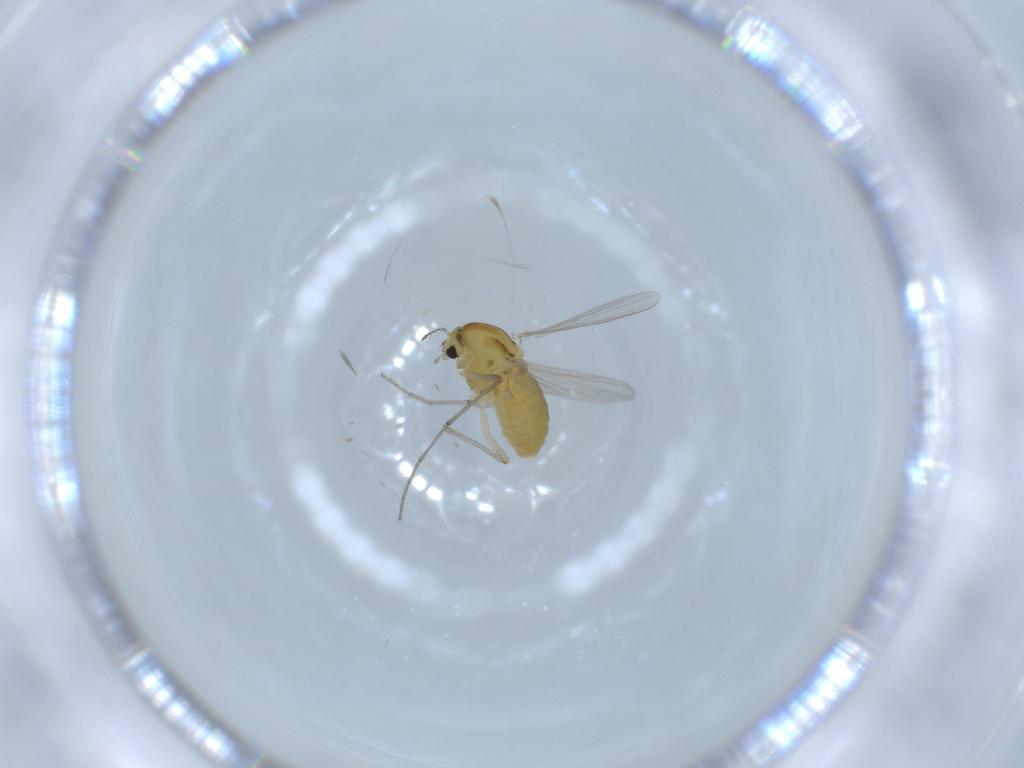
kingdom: Animalia
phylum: Arthropoda
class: Insecta
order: Diptera
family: Chironomidae
